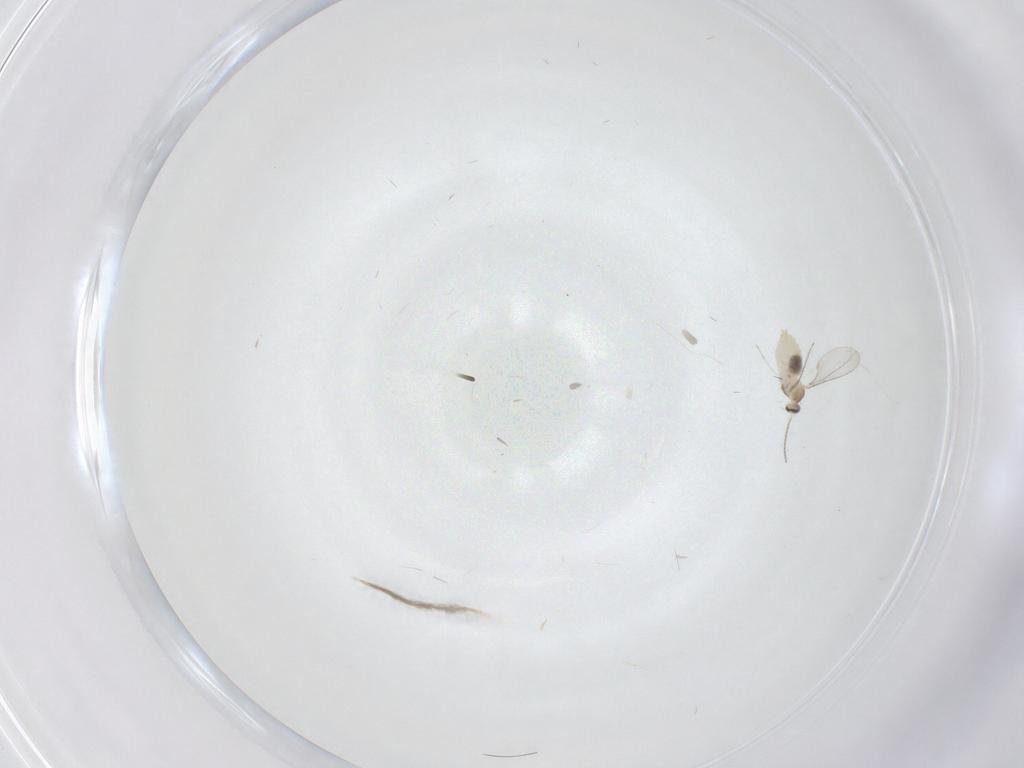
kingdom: Animalia
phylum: Arthropoda
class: Insecta
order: Diptera
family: Cecidomyiidae
